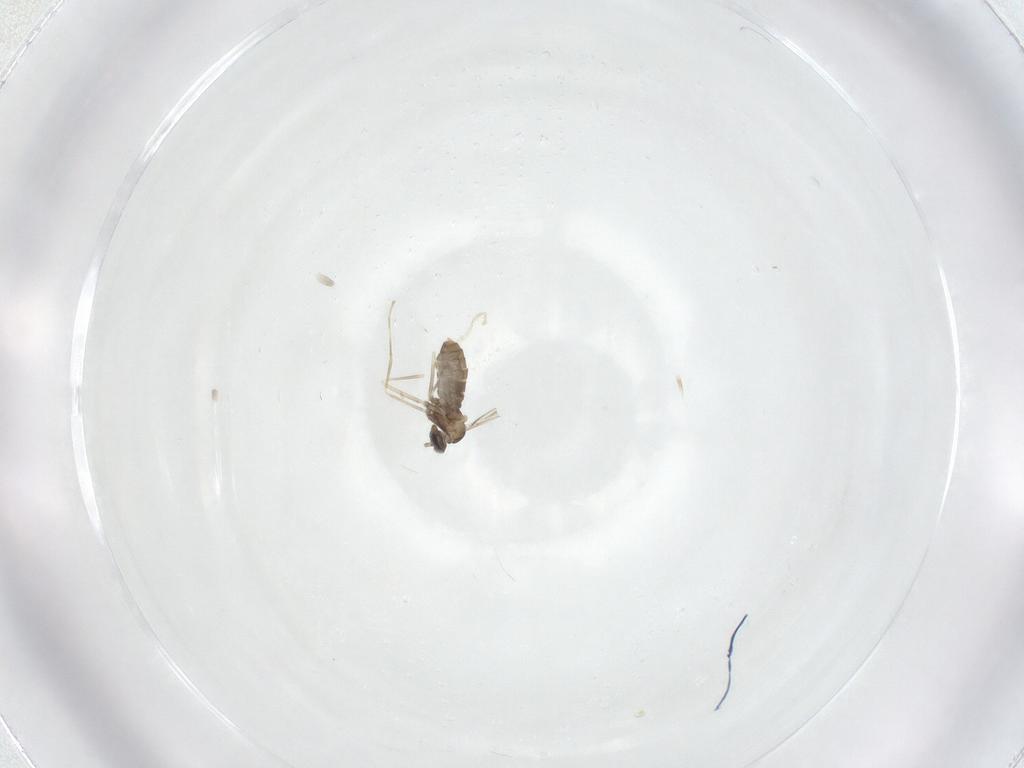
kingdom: Animalia
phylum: Arthropoda
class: Insecta
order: Diptera
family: Cecidomyiidae
